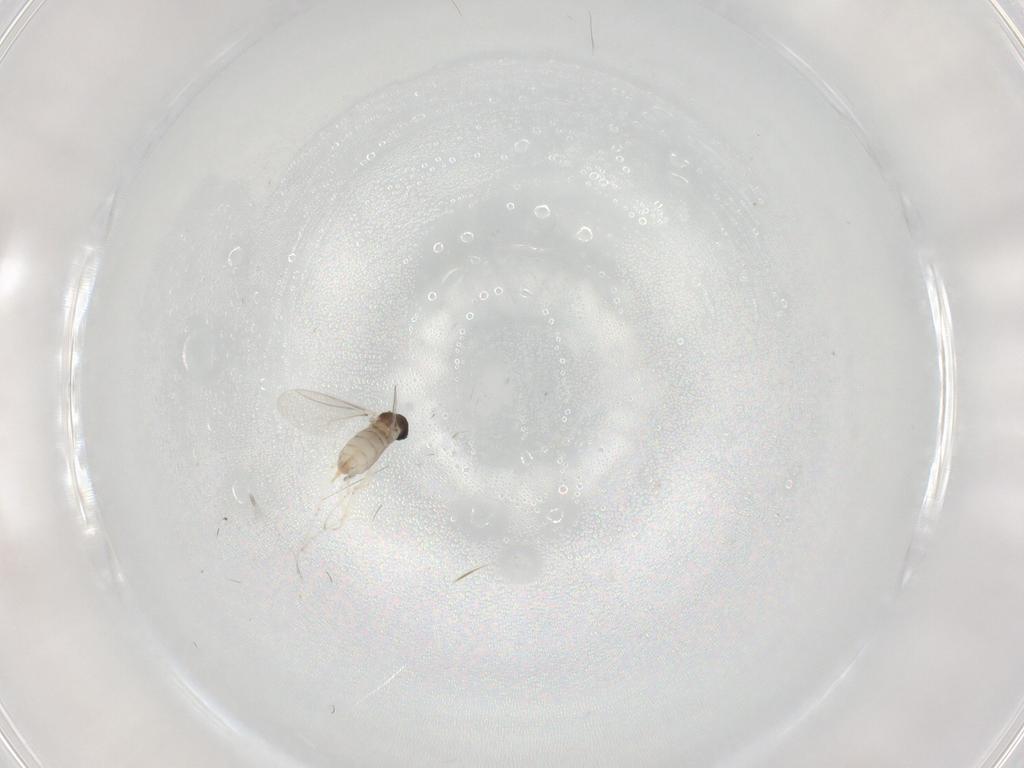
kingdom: Animalia
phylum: Arthropoda
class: Insecta
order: Diptera
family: Cecidomyiidae
